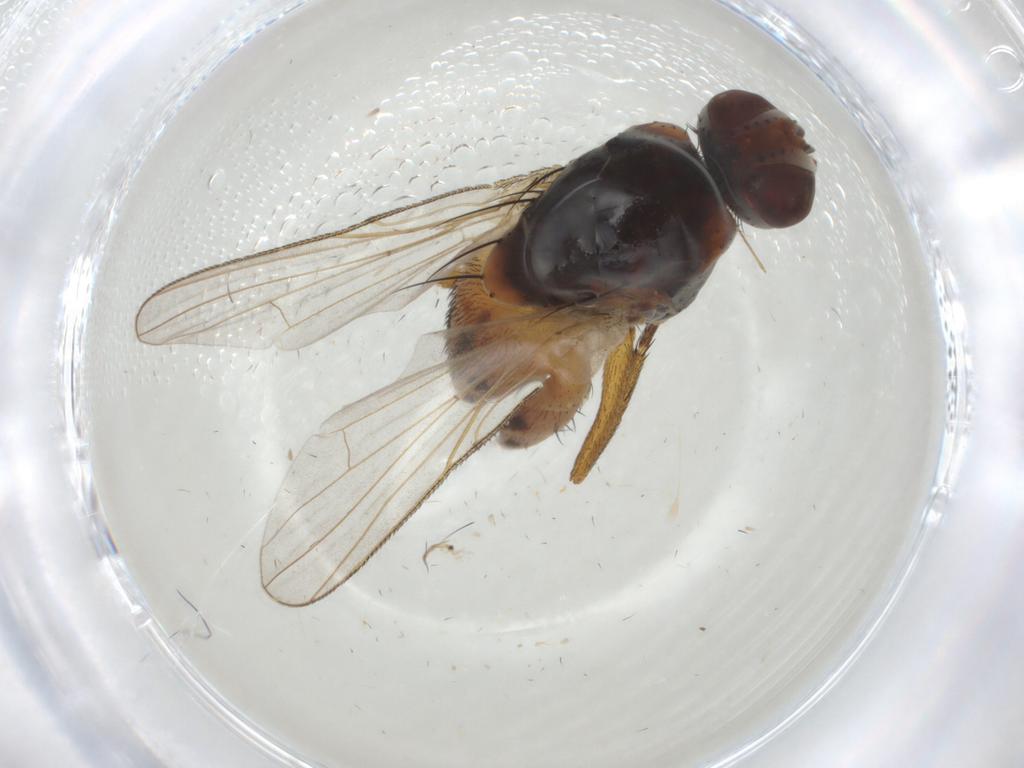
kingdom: Animalia
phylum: Arthropoda
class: Insecta
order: Diptera
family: Muscidae
